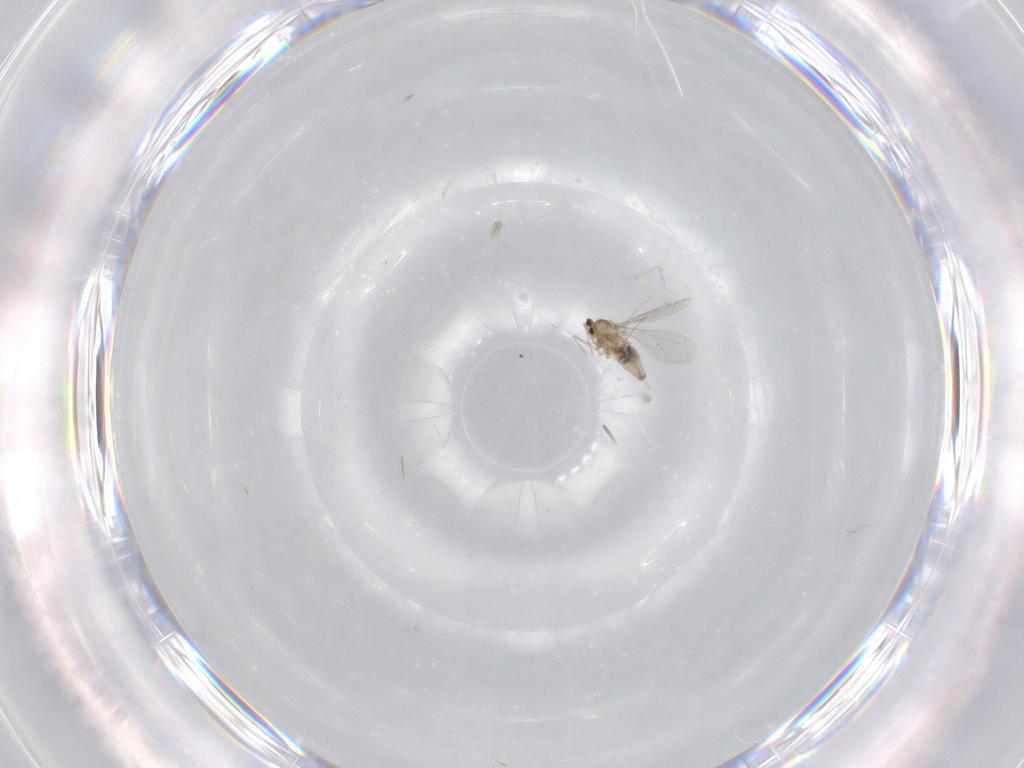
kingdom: Animalia
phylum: Arthropoda
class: Insecta
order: Diptera
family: Cecidomyiidae
